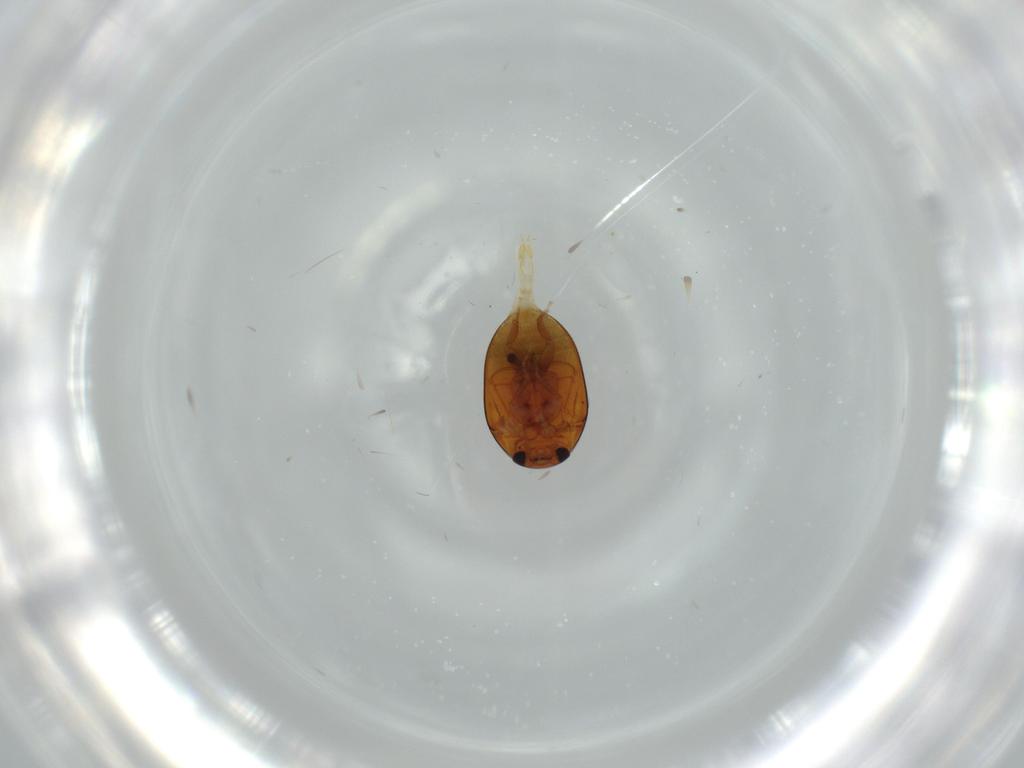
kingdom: Animalia
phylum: Arthropoda
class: Insecta
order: Coleoptera
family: Phalacridae
